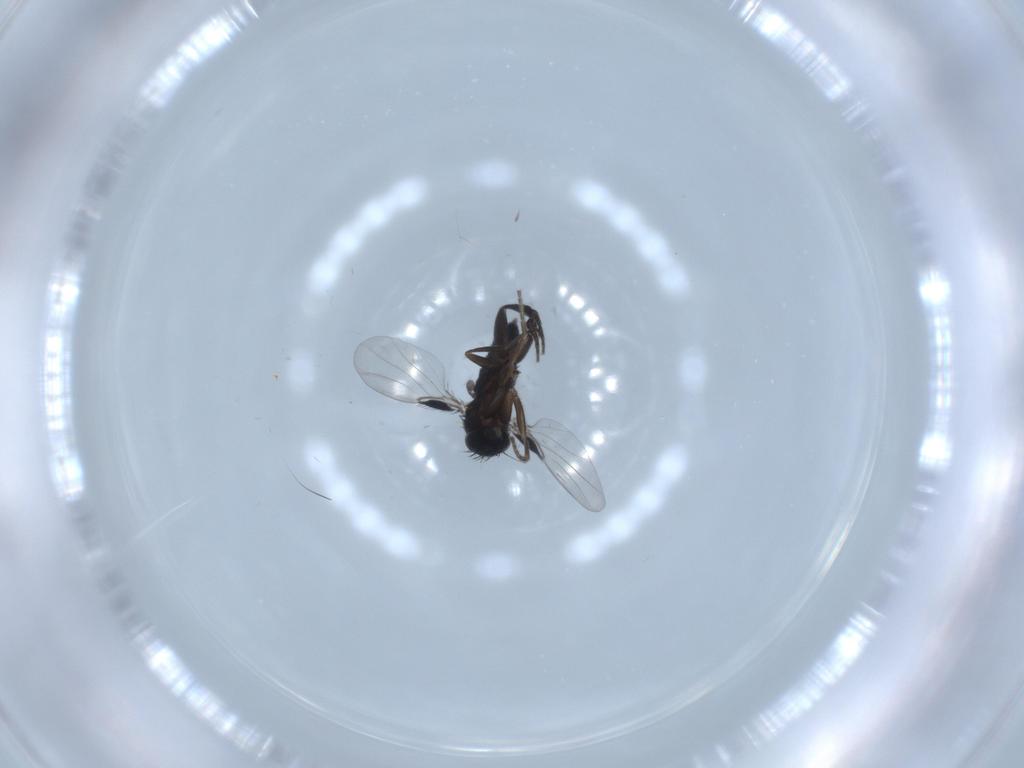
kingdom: Animalia
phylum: Arthropoda
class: Insecta
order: Diptera
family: Phoridae
